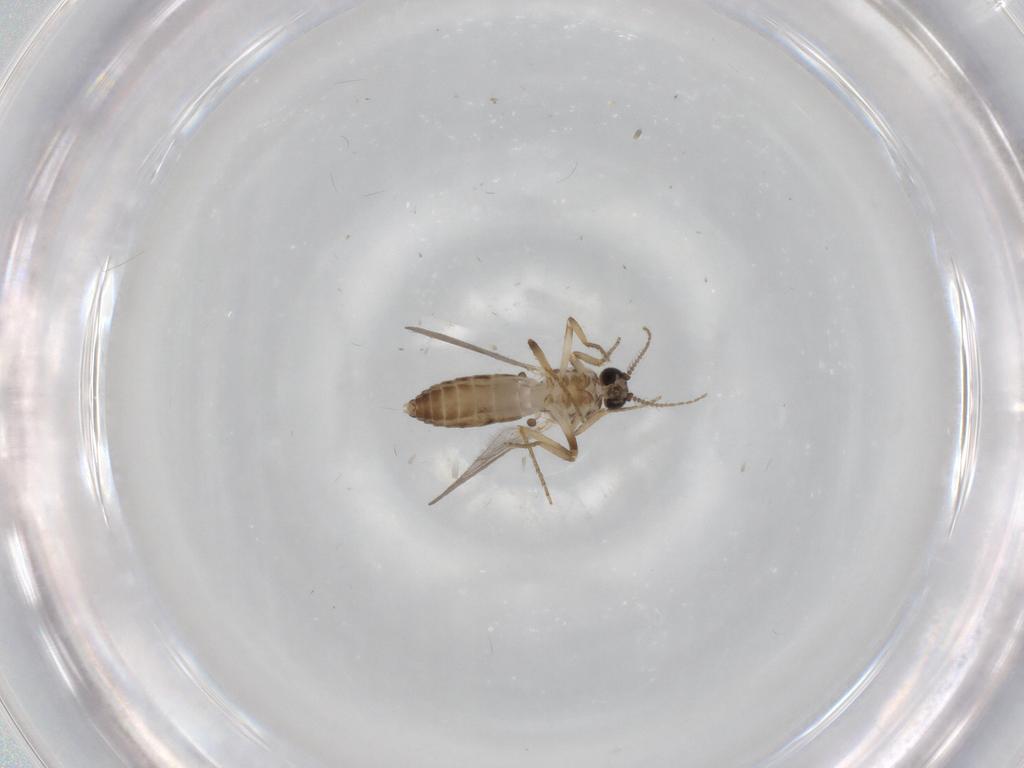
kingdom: Animalia
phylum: Arthropoda
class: Insecta
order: Diptera
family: Ceratopogonidae
